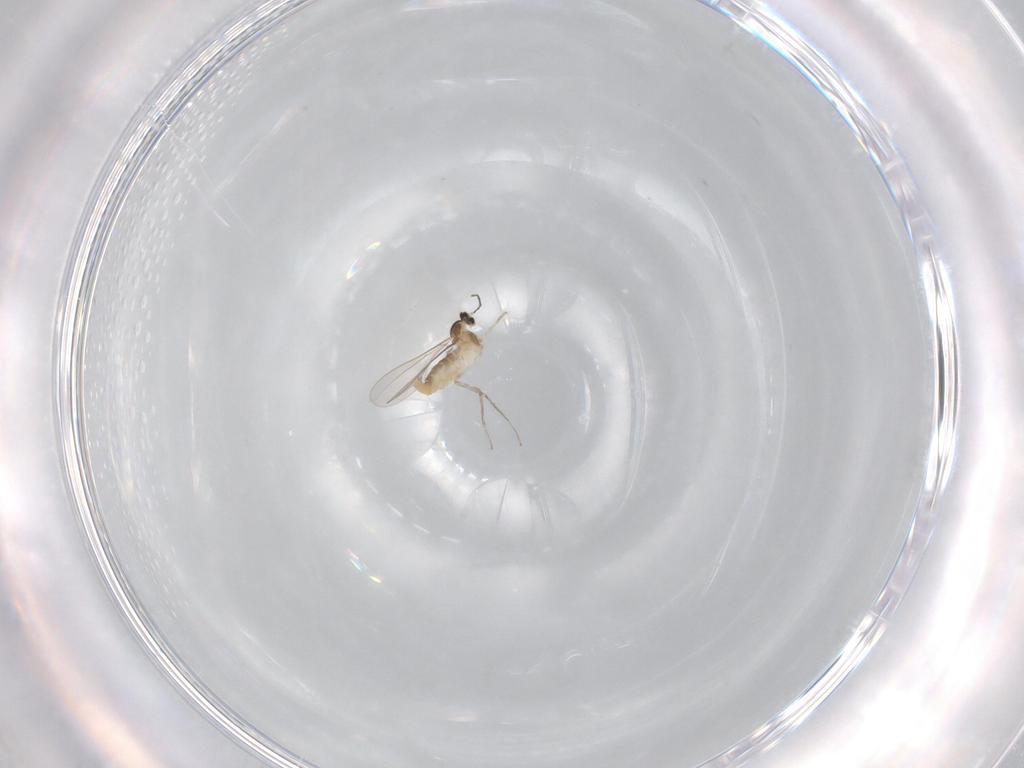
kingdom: Animalia
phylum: Arthropoda
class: Insecta
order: Diptera
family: Cecidomyiidae
